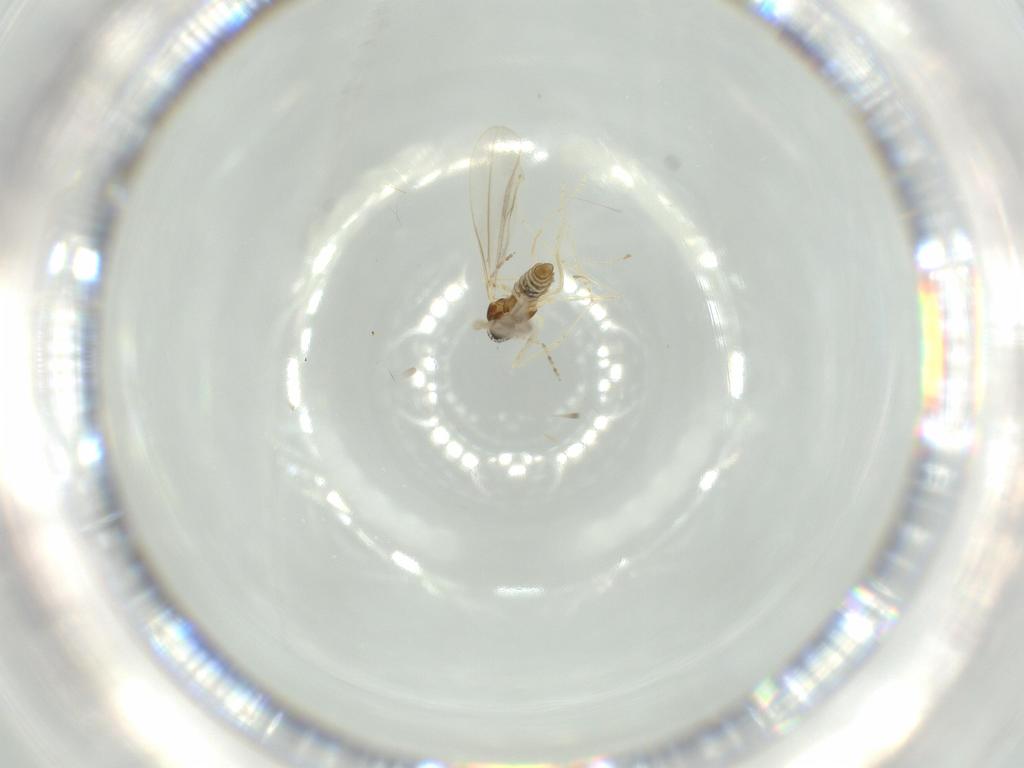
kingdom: Animalia
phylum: Arthropoda
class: Insecta
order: Diptera
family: Cecidomyiidae
